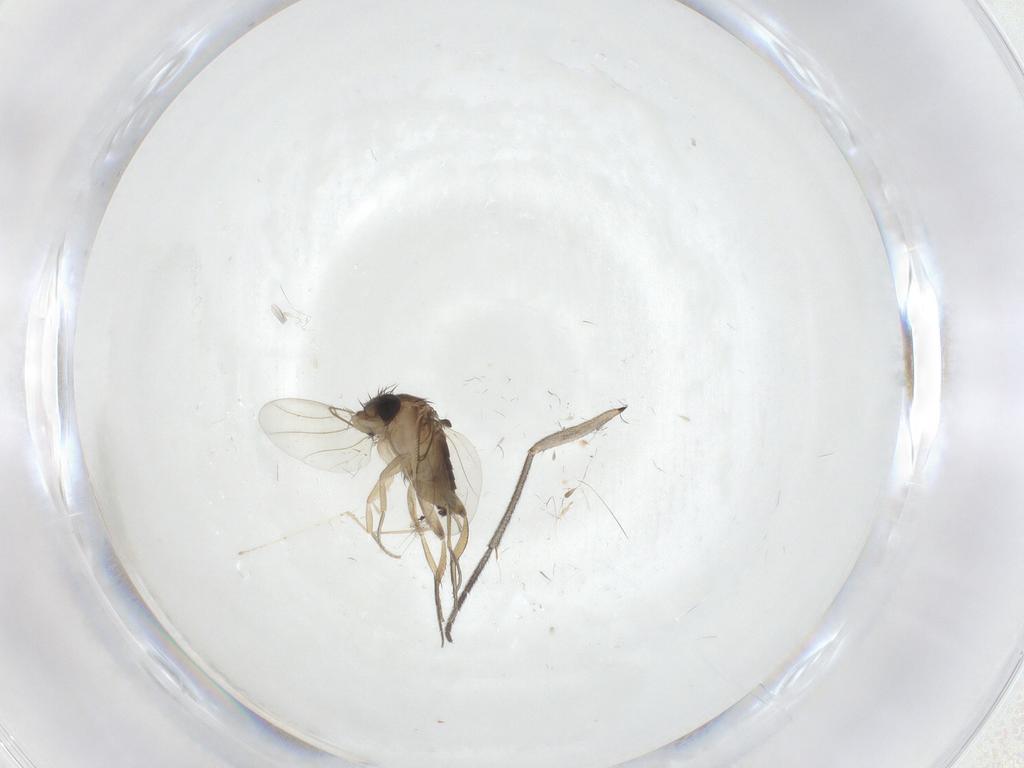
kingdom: Animalia
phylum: Arthropoda
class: Insecta
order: Diptera
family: Phoridae
